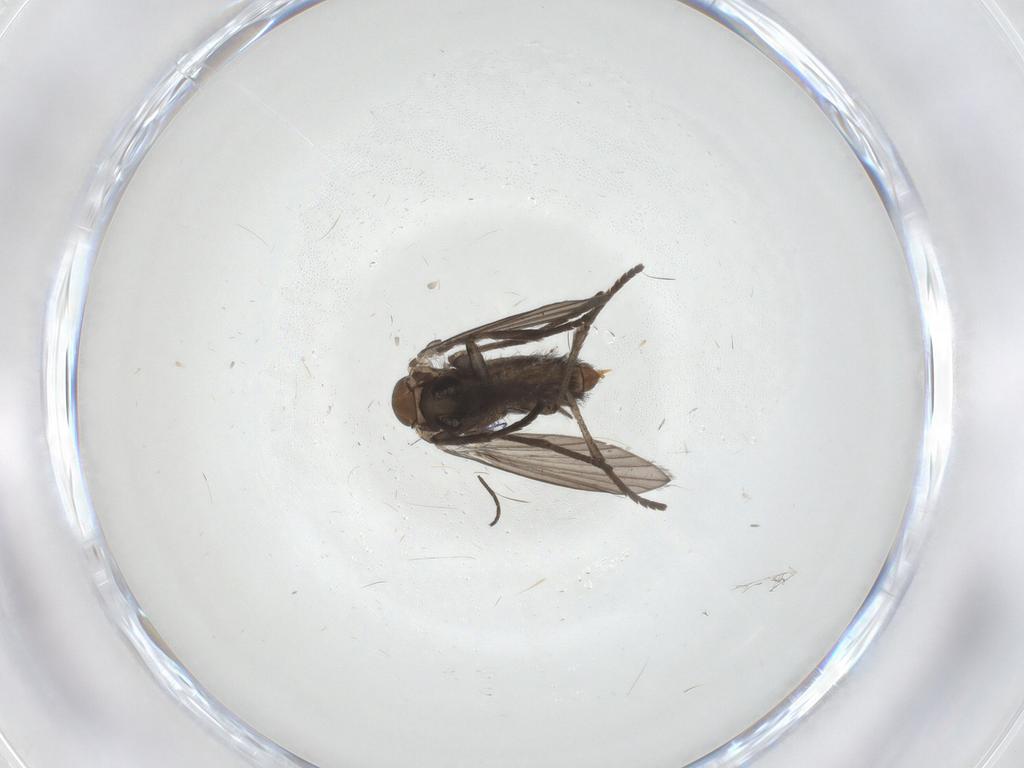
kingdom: Animalia
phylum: Arthropoda
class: Insecta
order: Diptera
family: Sciaridae
